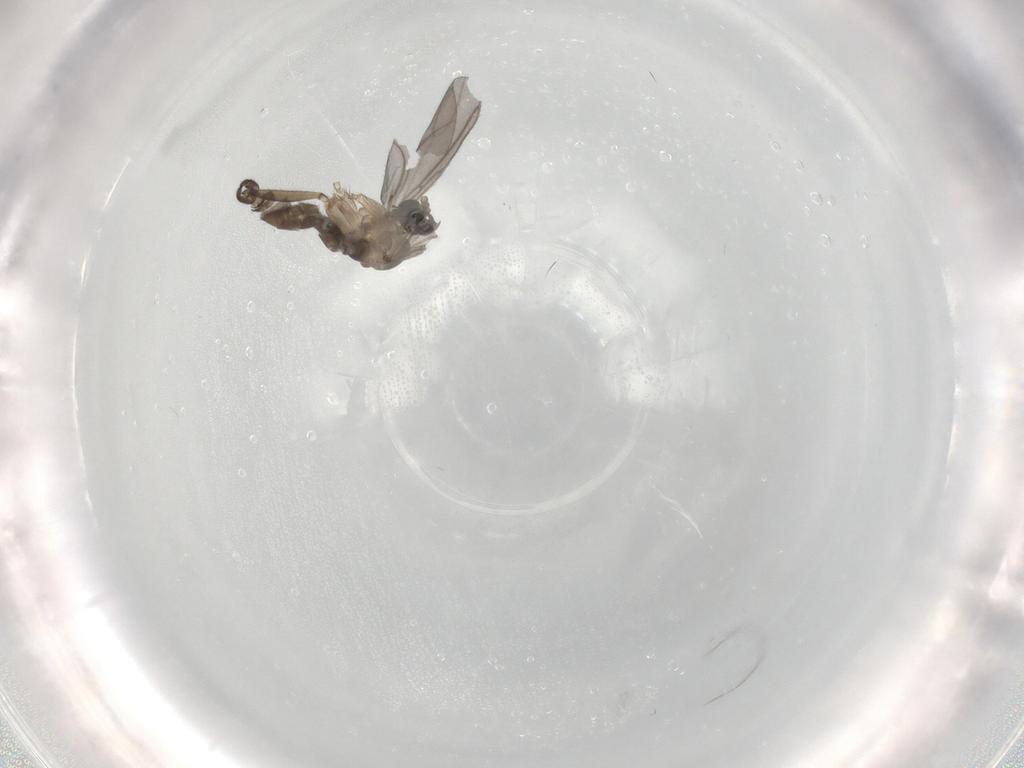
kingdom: Animalia
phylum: Arthropoda
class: Insecta
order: Diptera
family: Sciaridae
